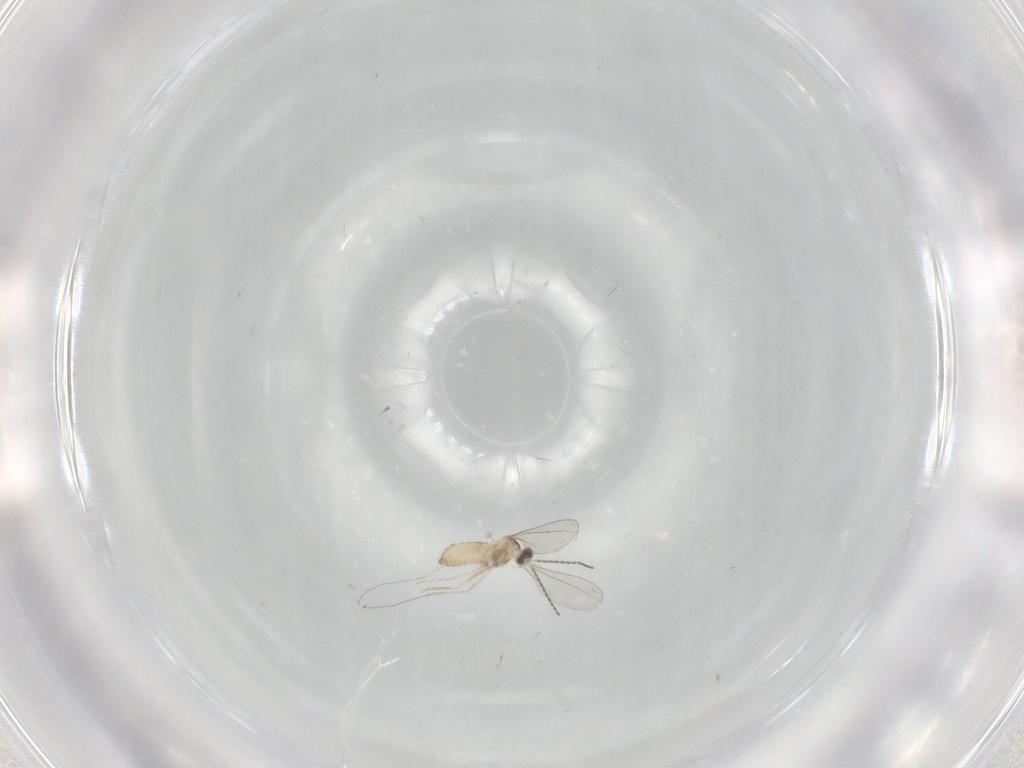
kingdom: Animalia
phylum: Arthropoda
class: Insecta
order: Diptera
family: Cecidomyiidae
